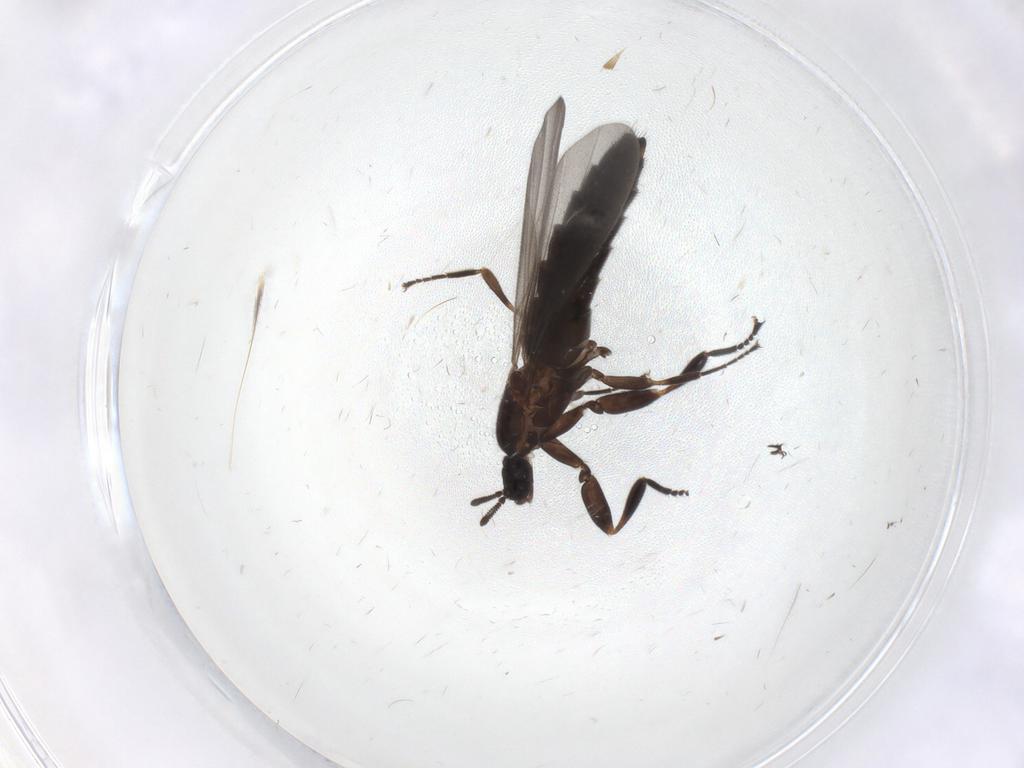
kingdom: Animalia
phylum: Arthropoda
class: Insecta
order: Diptera
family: Scatopsidae
